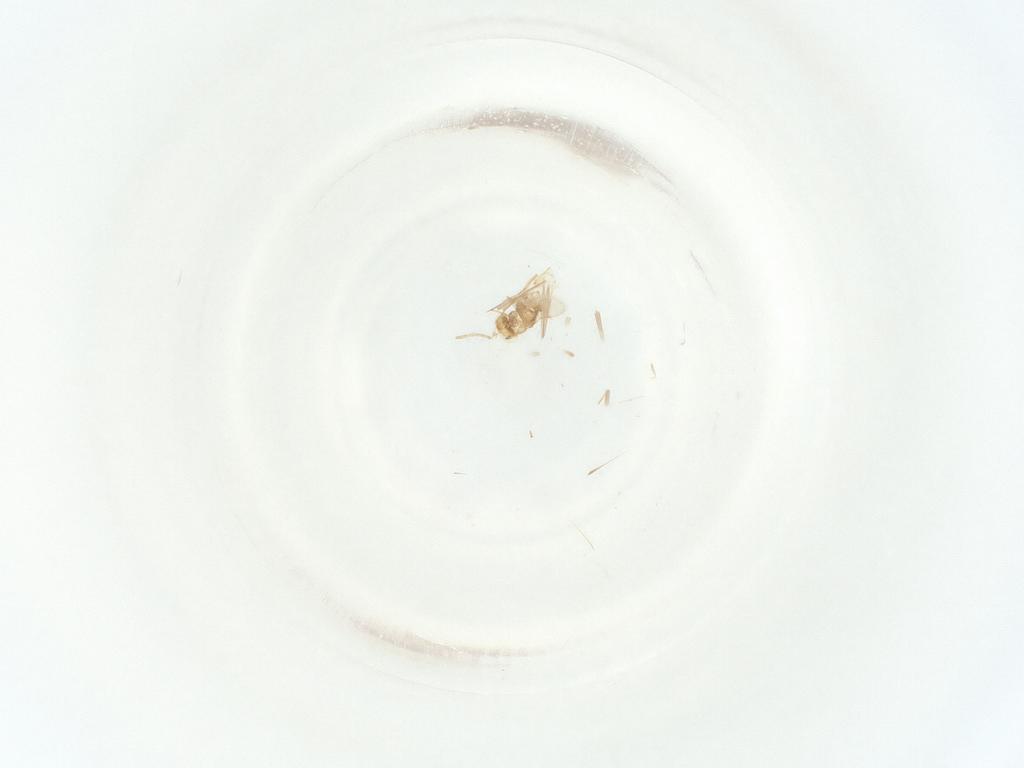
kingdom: Animalia
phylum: Arthropoda
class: Insecta
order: Hymenoptera
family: Aphelinidae
